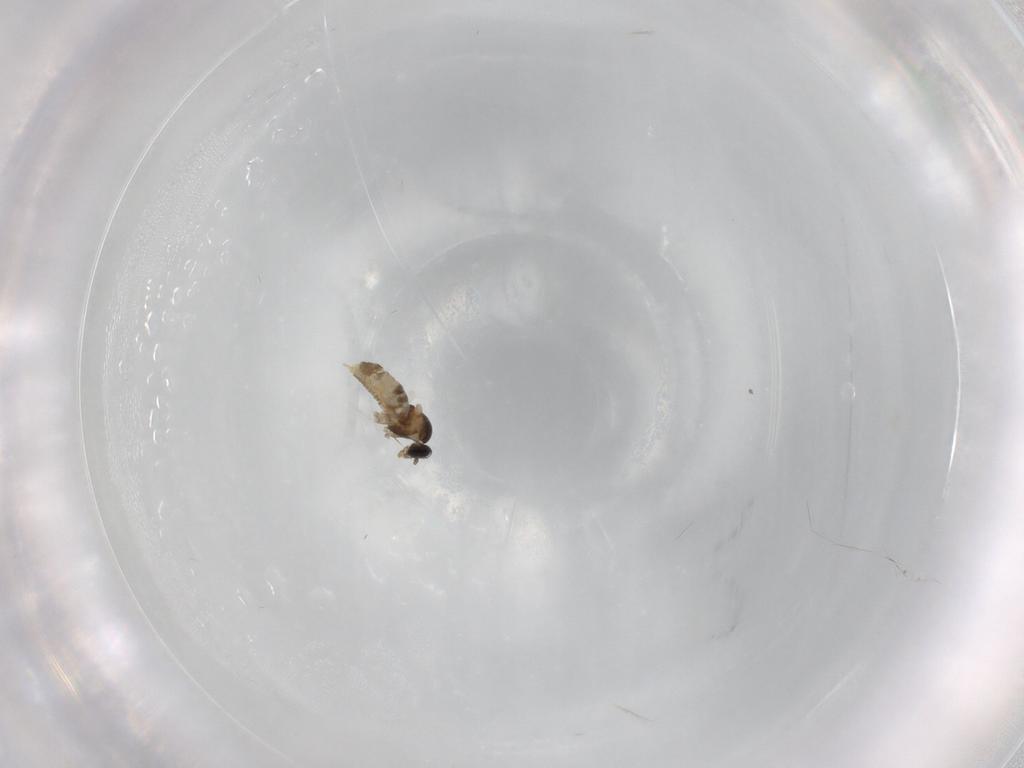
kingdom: Animalia
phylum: Arthropoda
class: Insecta
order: Diptera
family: Cecidomyiidae
